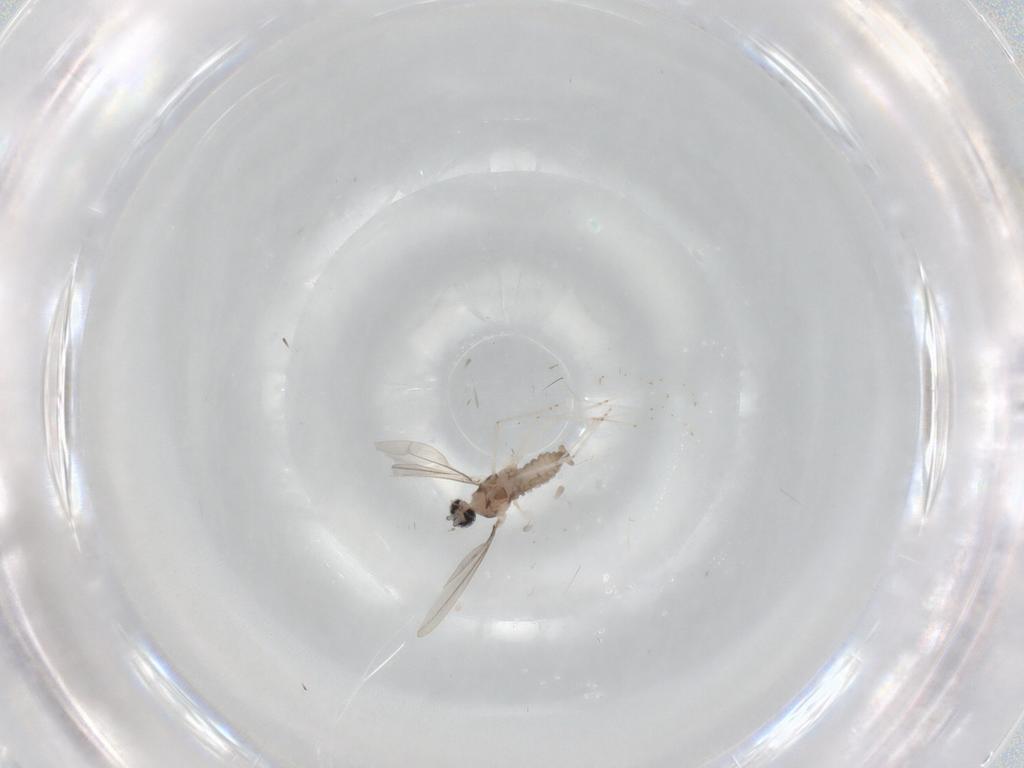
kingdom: Animalia
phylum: Arthropoda
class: Insecta
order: Diptera
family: Cecidomyiidae
